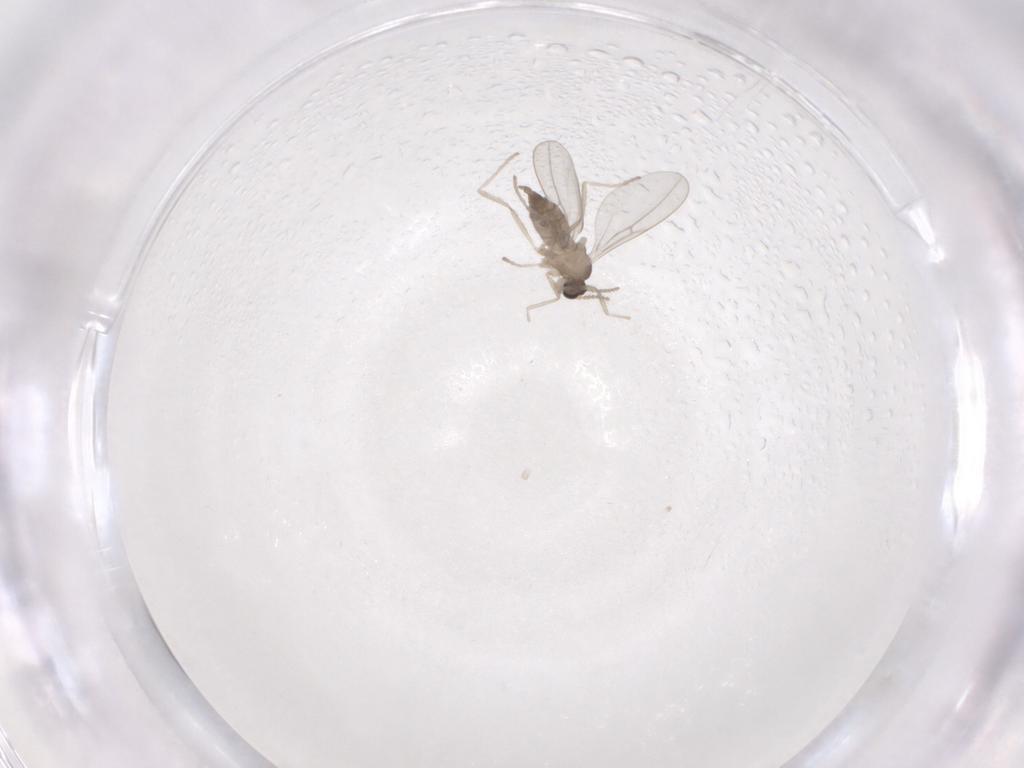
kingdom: Animalia
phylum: Arthropoda
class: Insecta
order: Diptera
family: Cecidomyiidae
